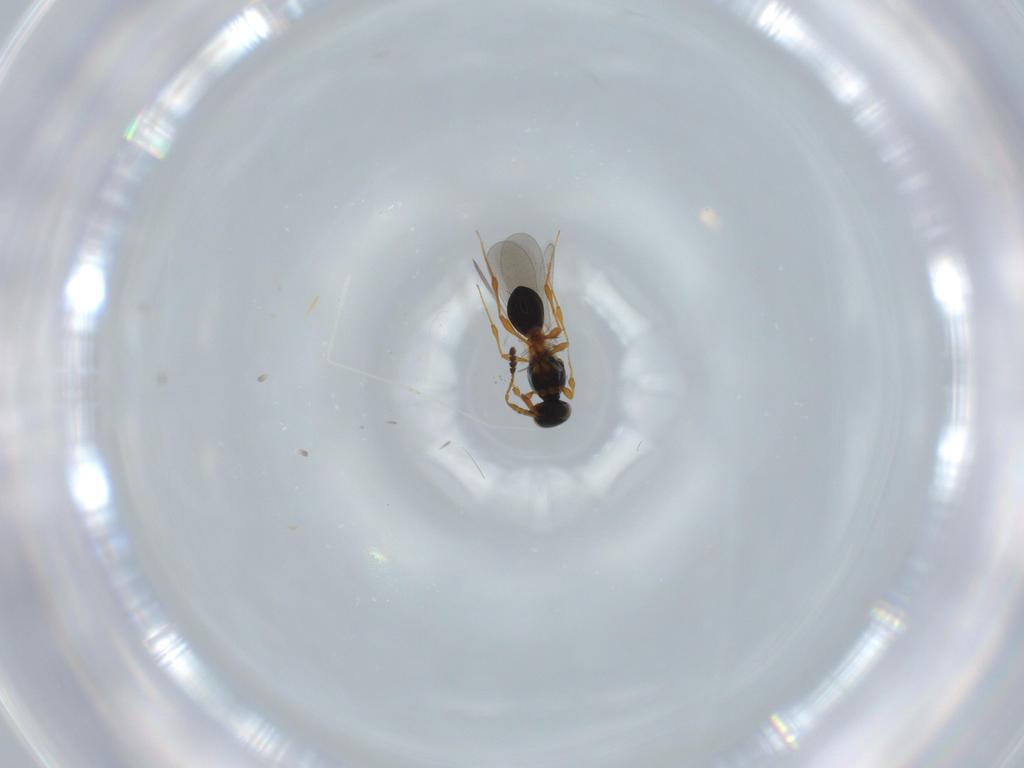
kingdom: Animalia
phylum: Arthropoda
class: Insecta
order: Hymenoptera
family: Platygastridae
